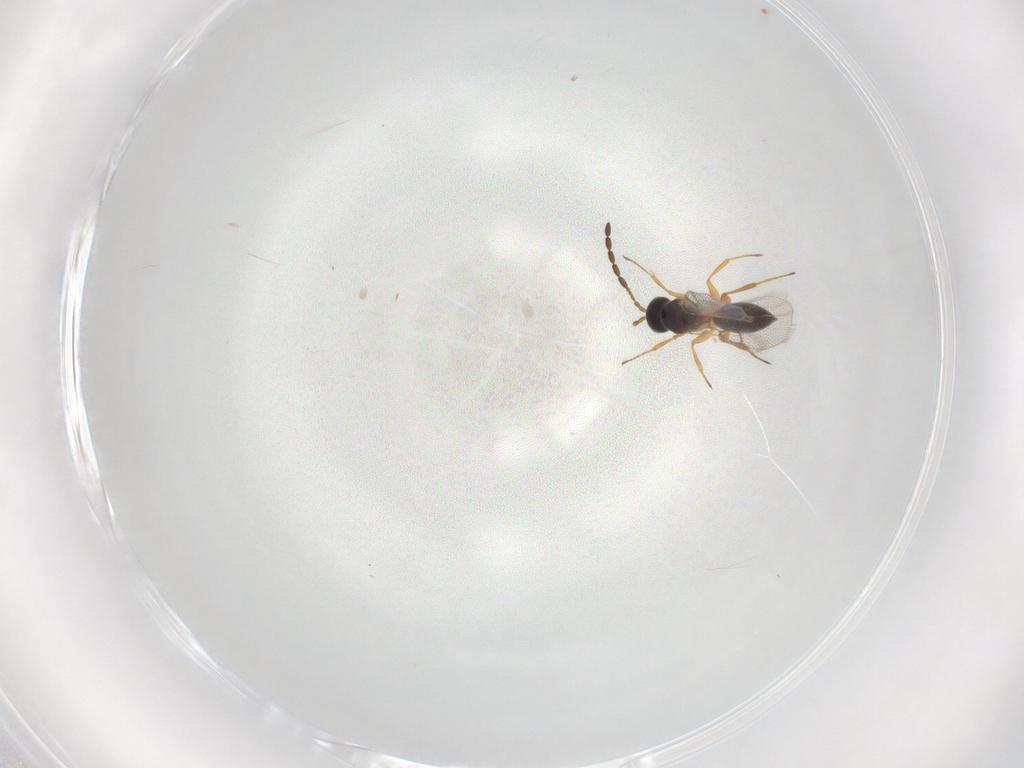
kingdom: Animalia
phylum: Arthropoda
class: Insecta
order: Hymenoptera
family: Figitidae
